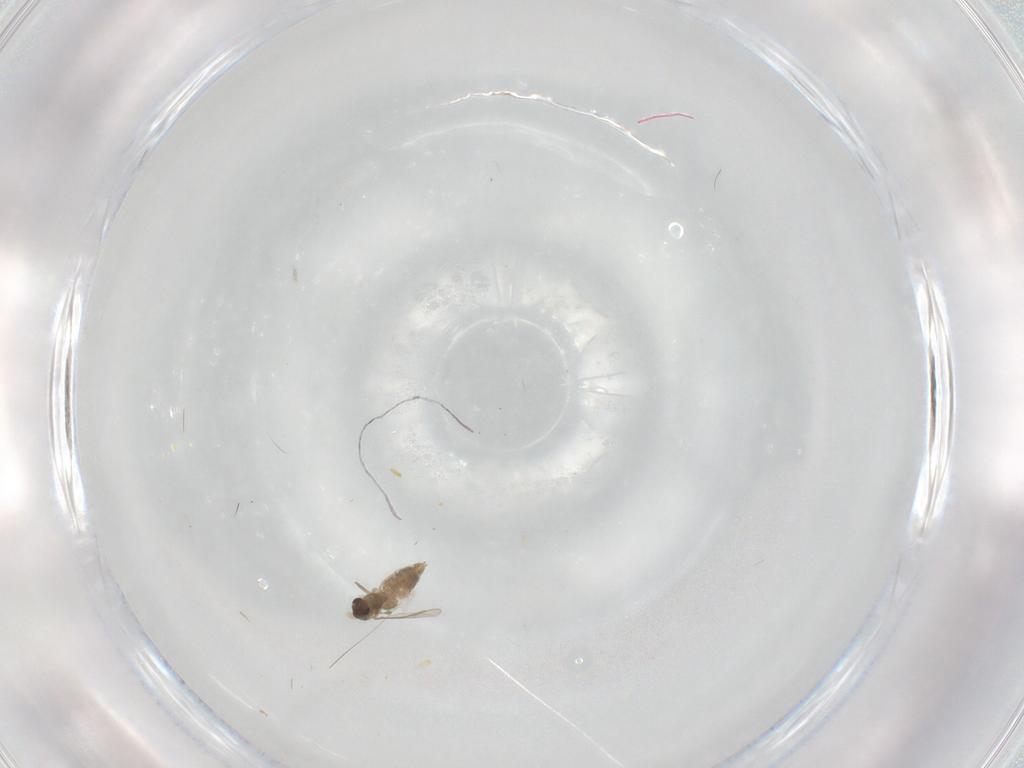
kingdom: Animalia
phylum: Arthropoda
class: Insecta
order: Diptera
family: Chironomidae
